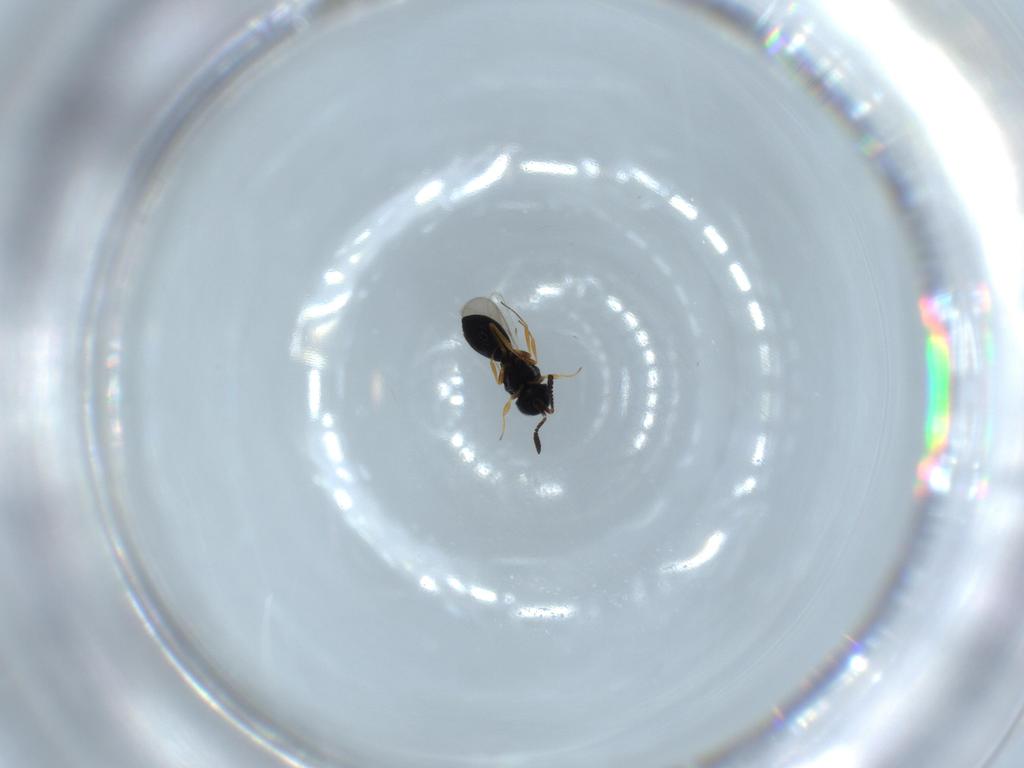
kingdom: Animalia
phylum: Arthropoda
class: Insecta
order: Hymenoptera
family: Scelionidae
